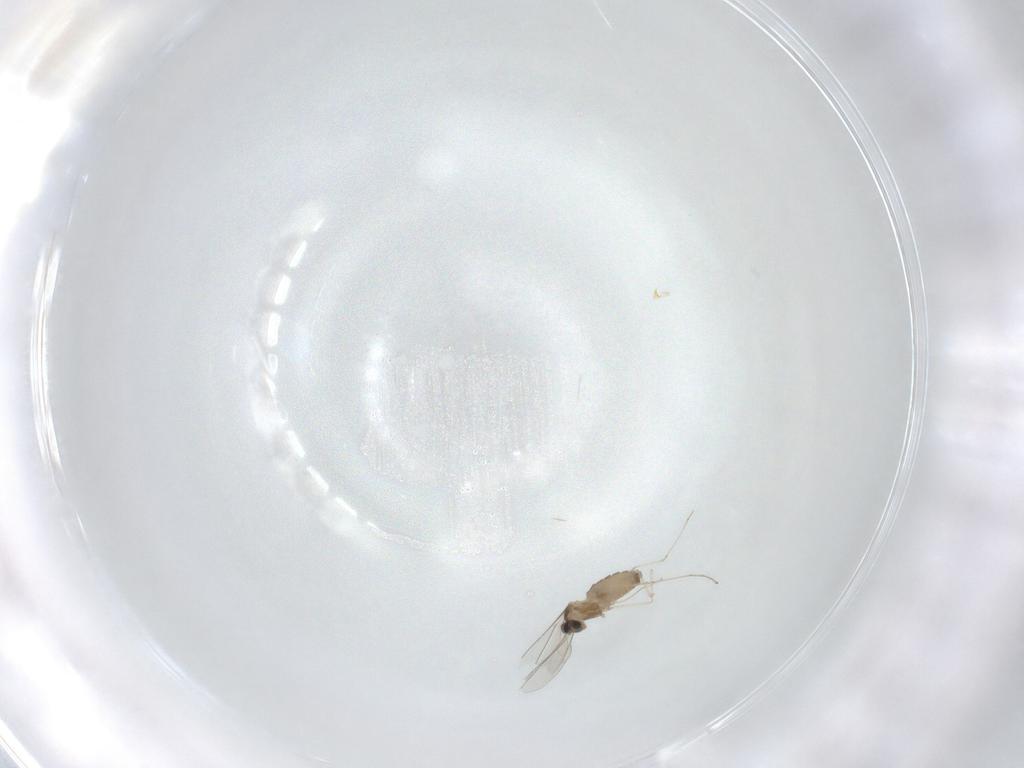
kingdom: Animalia
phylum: Arthropoda
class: Insecta
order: Diptera
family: Cecidomyiidae
